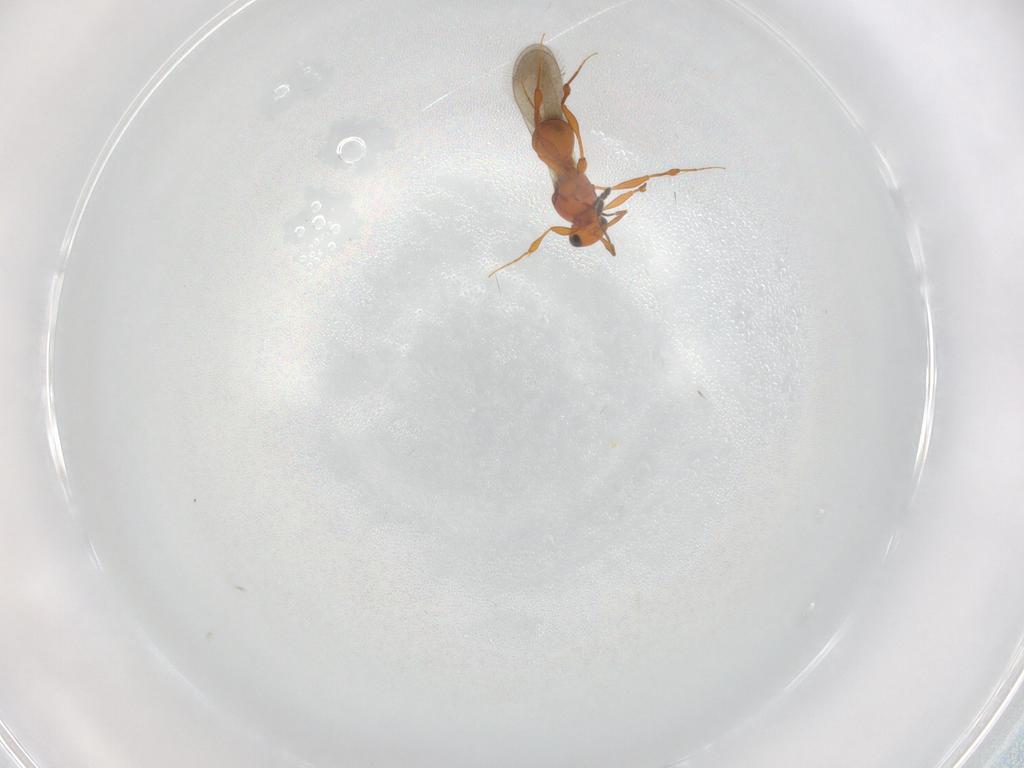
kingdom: Animalia
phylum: Arthropoda
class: Insecta
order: Hymenoptera
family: Platygastridae
